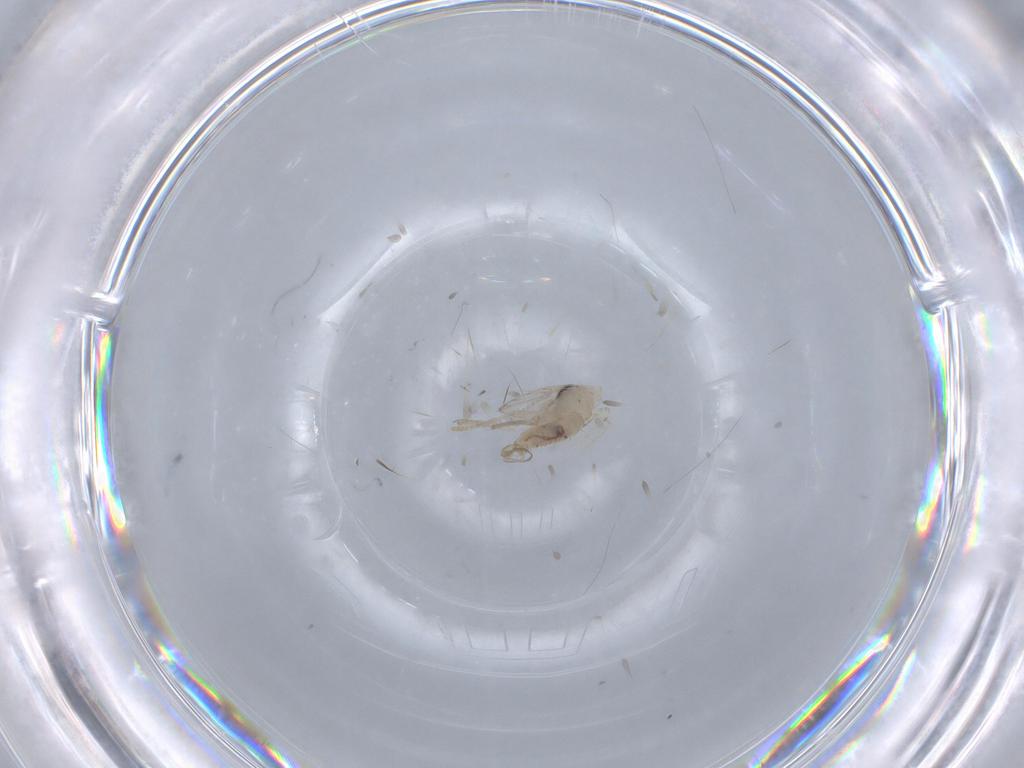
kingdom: Animalia
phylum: Arthropoda
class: Insecta
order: Diptera
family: Psychodidae
